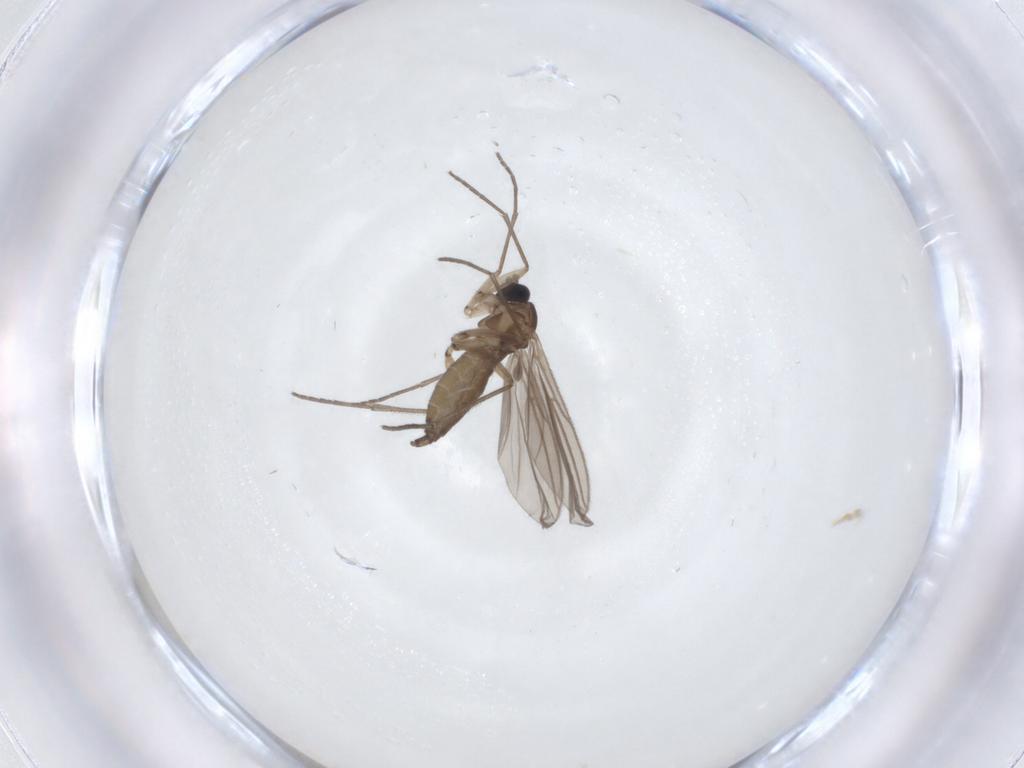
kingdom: Animalia
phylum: Arthropoda
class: Insecta
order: Diptera
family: Sciaridae
